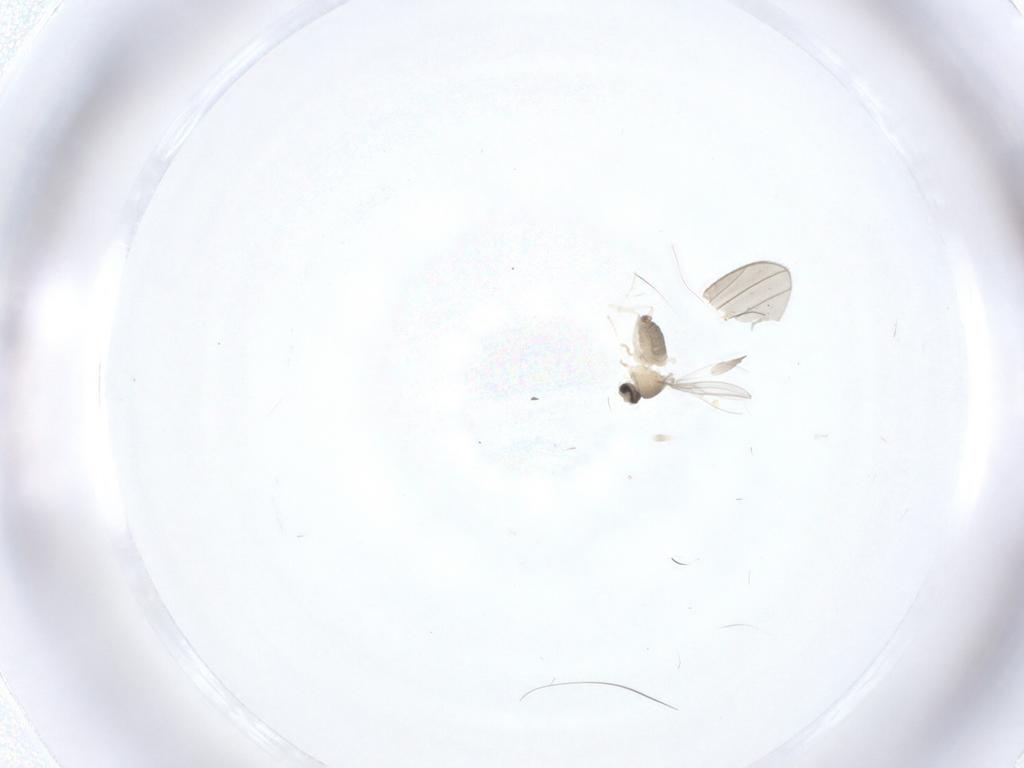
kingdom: Animalia
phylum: Arthropoda
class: Insecta
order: Diptera
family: Cecidomyiidae
